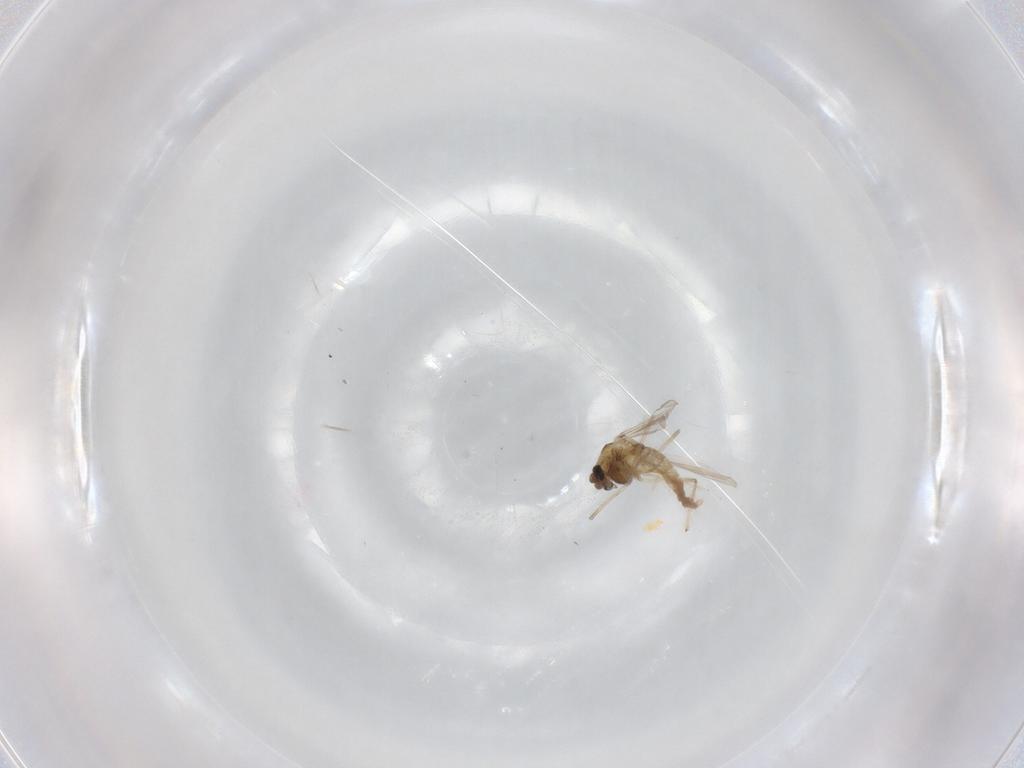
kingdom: Animalia
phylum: Arthropoda
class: Insecta
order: Diptera
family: Chironomidae
